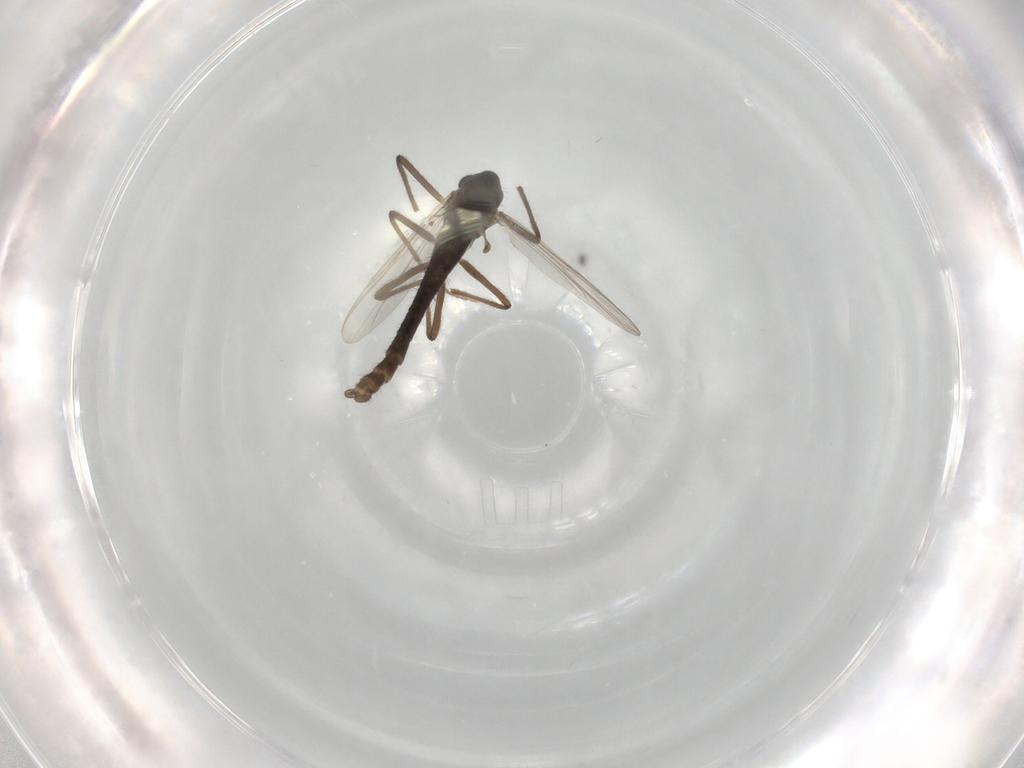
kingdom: Animalia
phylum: Arthropoda
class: Insecta
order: Diptera
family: Chironomidae
